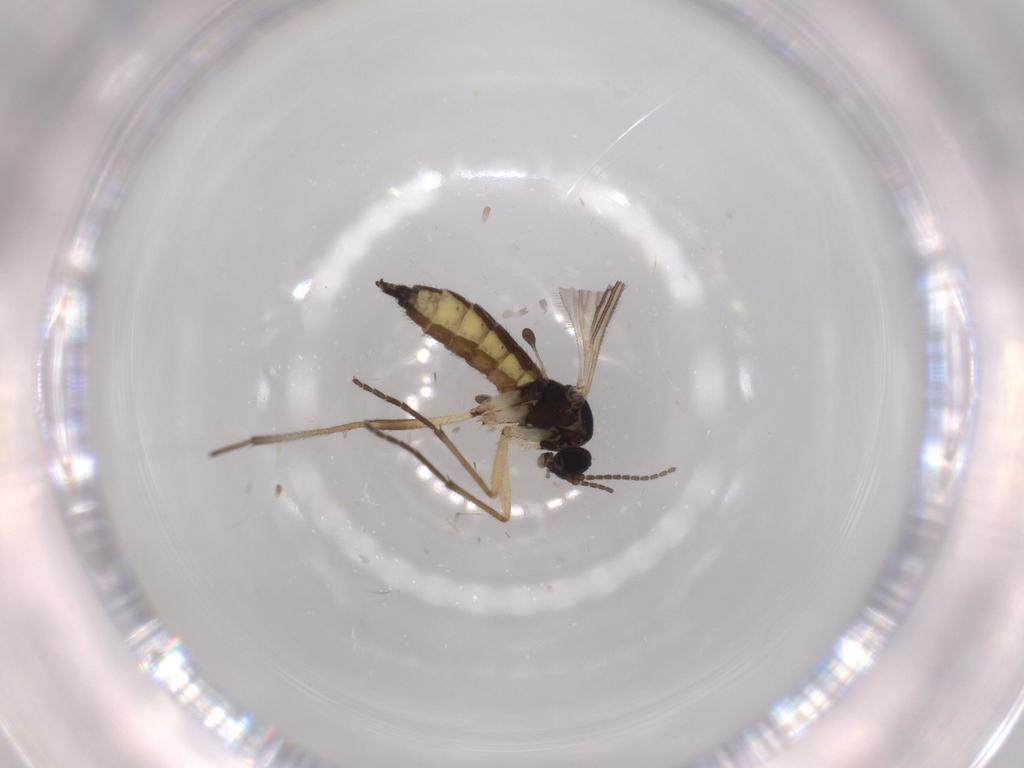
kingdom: Animalia
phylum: Arthropoda
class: Insecta
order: Diptera
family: Sciaridae
